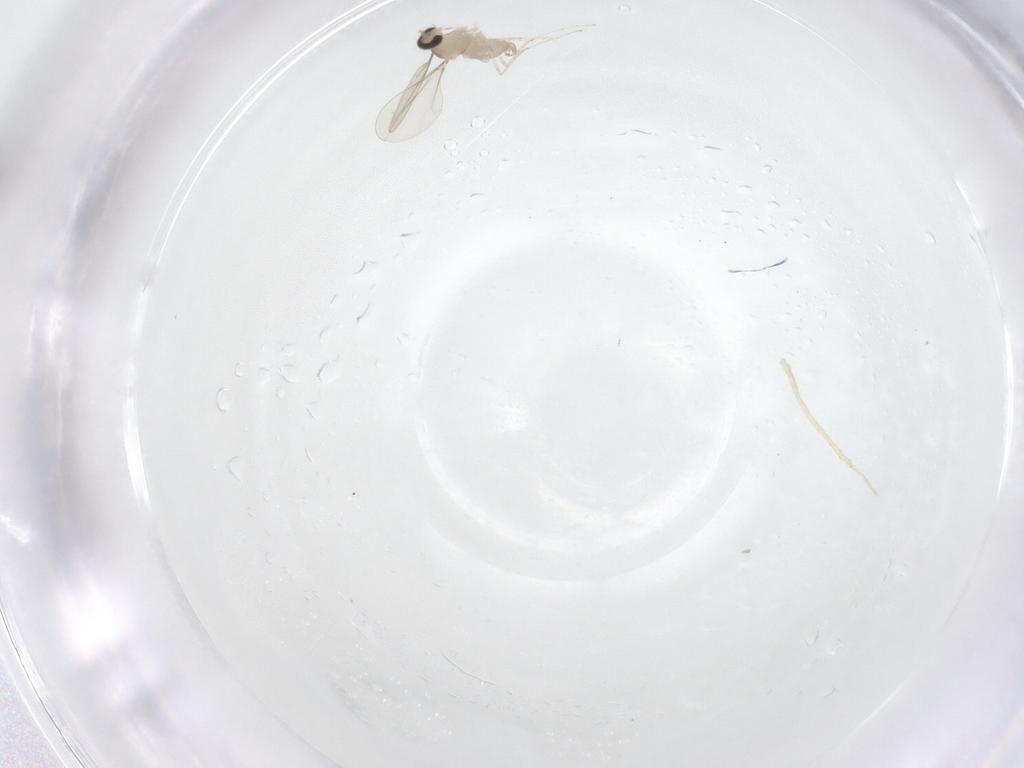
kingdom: Animalia
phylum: Arthropoda
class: Insecta
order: Diptera
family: Cecidomyiidae
